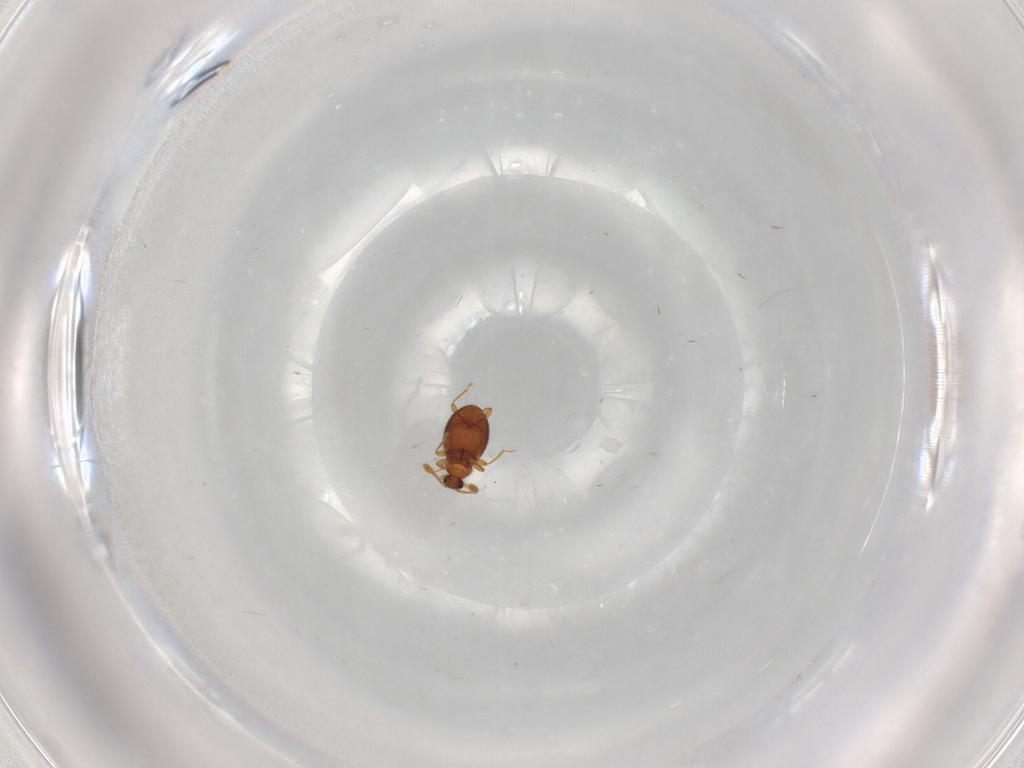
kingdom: Animalia
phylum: Arthropoda
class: Insecta
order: Coleoptera
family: Staphylinidae
